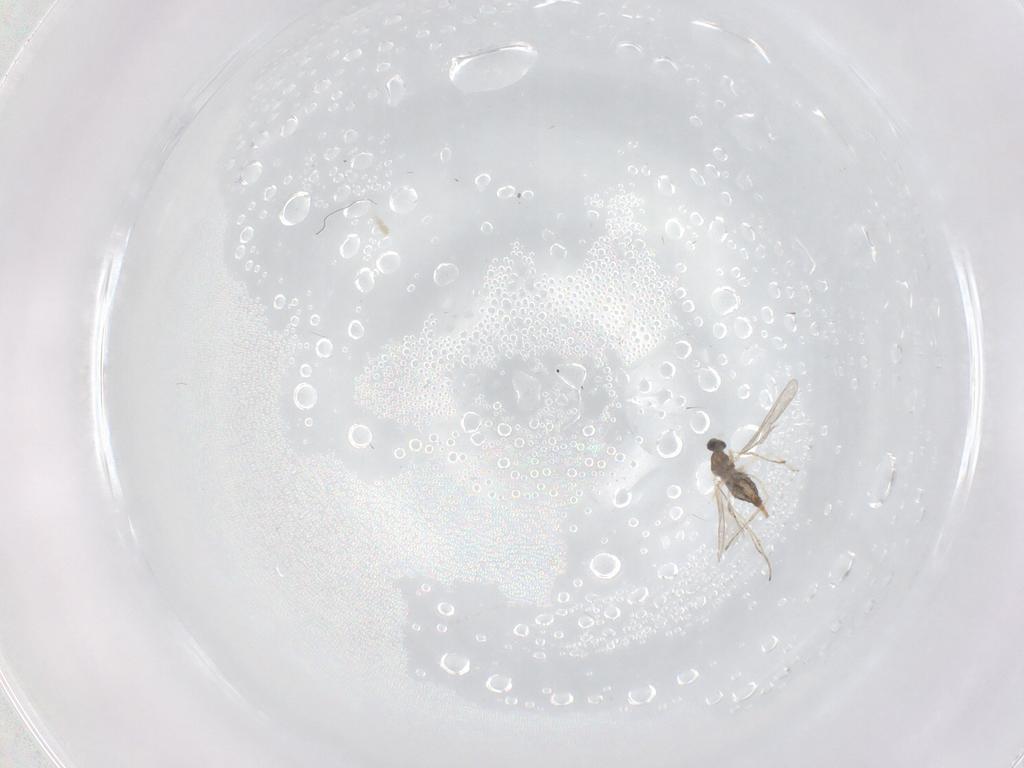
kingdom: Animalia
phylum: Arthropoda
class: Insecta
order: Diptera
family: Cecidomyiidae
